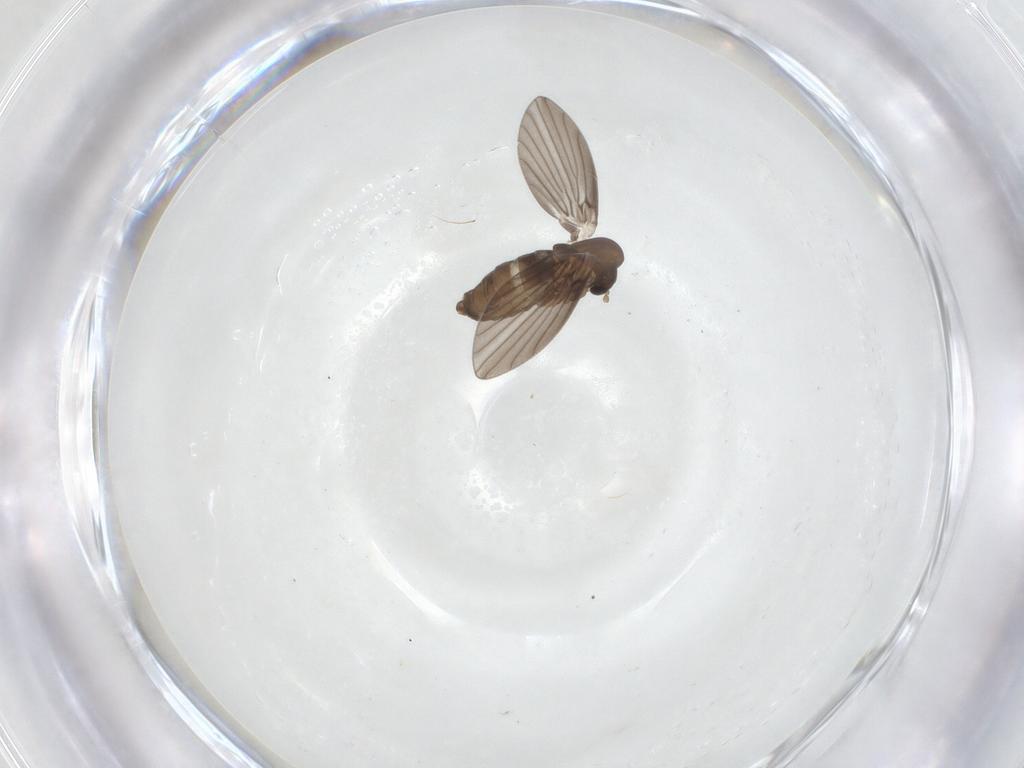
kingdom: Animalia
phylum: Arthropoda
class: Insecta
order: Diptera
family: Psychodidae
